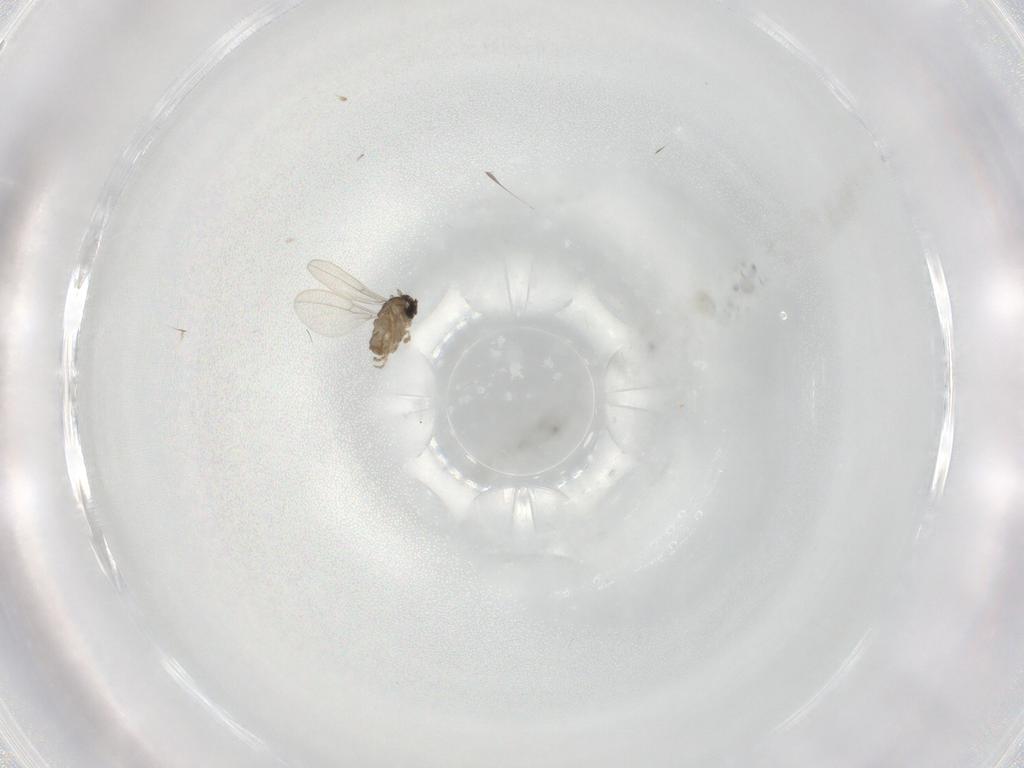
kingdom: Animalia
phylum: Arthropoda
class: Insecta
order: Diptera
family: Cecidomyiidae
